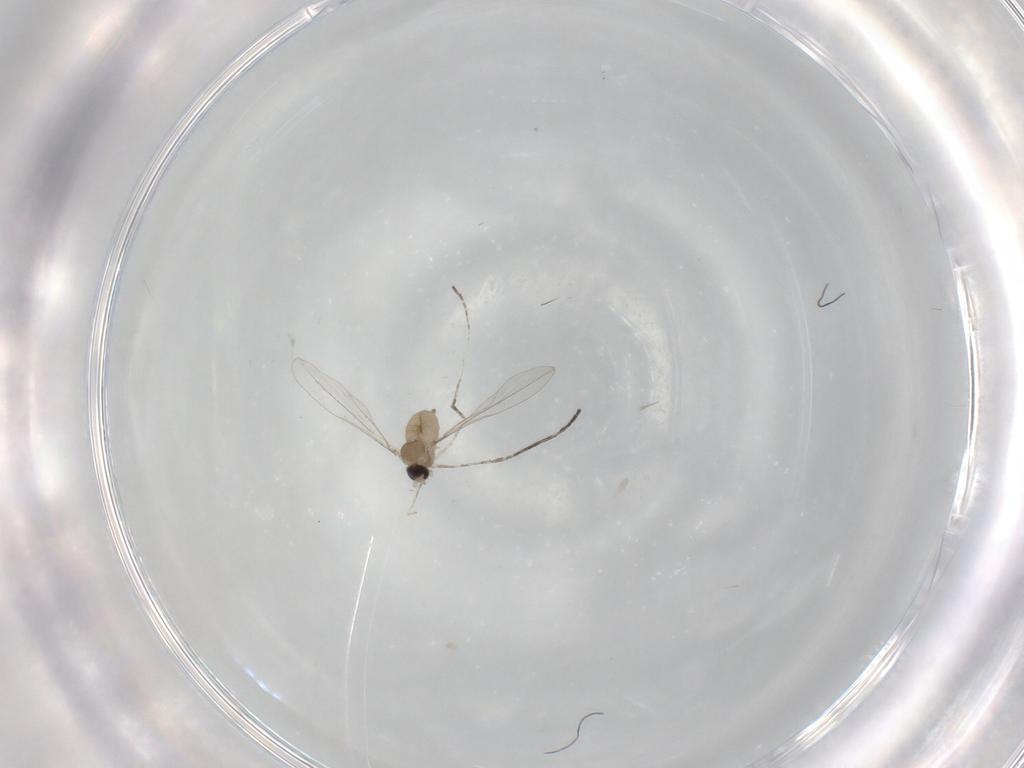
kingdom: Animalia
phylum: Arthropoda
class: Insecta
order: Diptera
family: Cecidomyiidae
